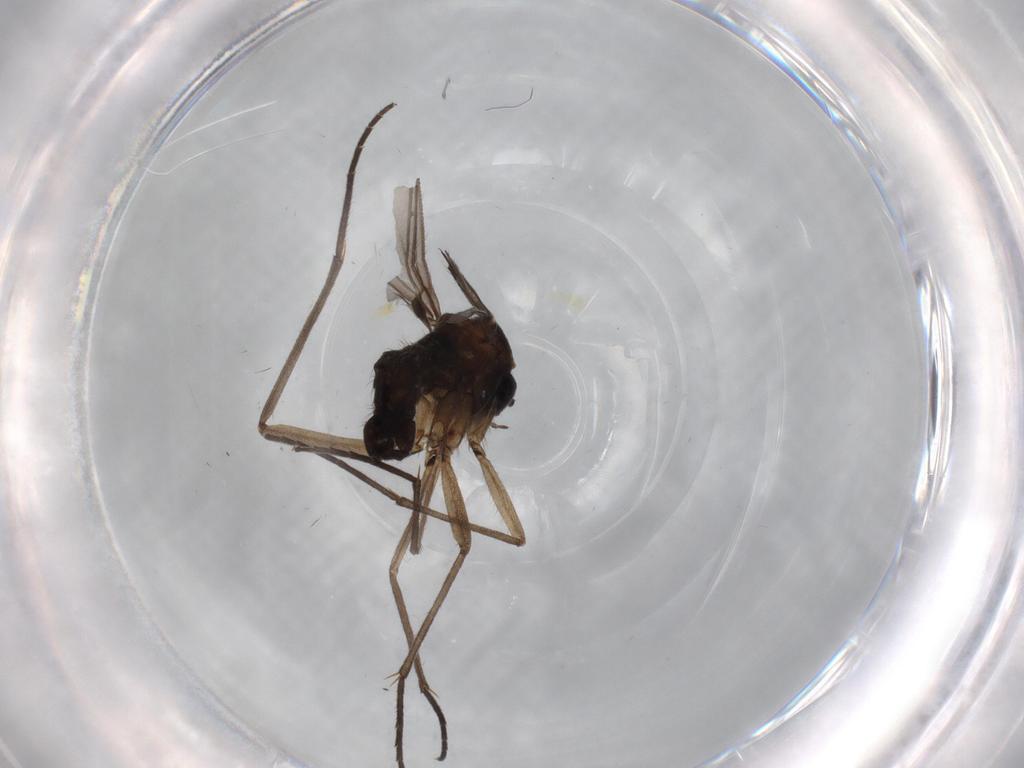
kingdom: Animalia
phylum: Arthropoda
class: Insecta
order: Diptera
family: Sciaridae
